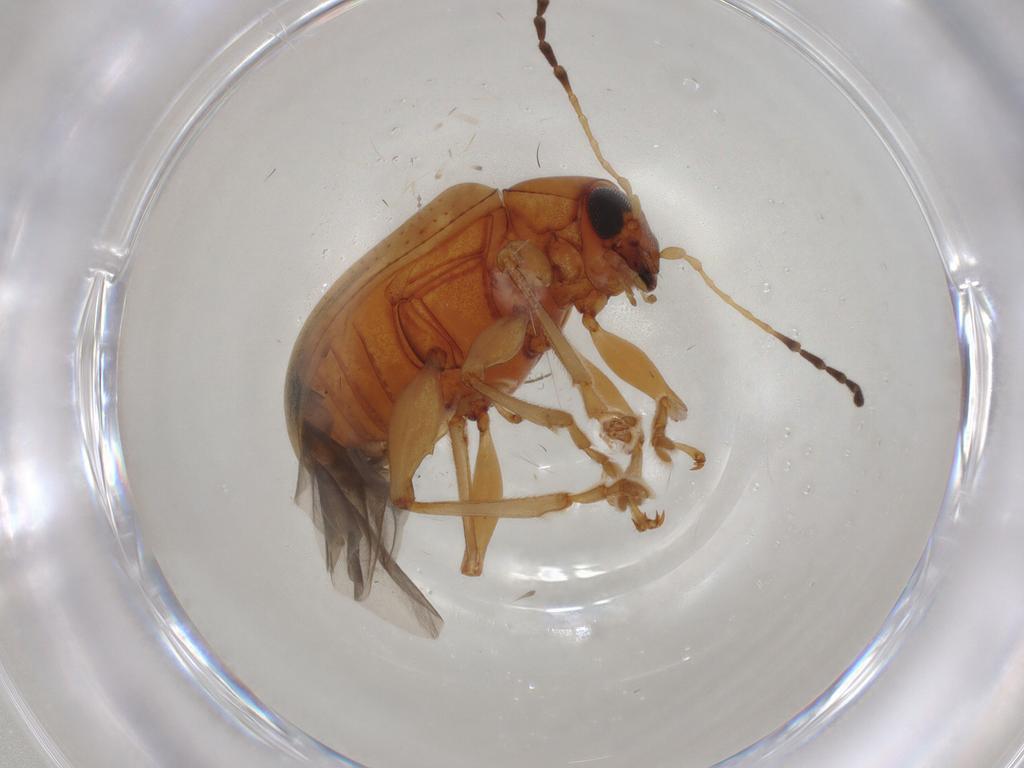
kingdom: Animalia
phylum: Arthropoda
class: Insecta
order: Coleoptera
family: Chrysomelidae
